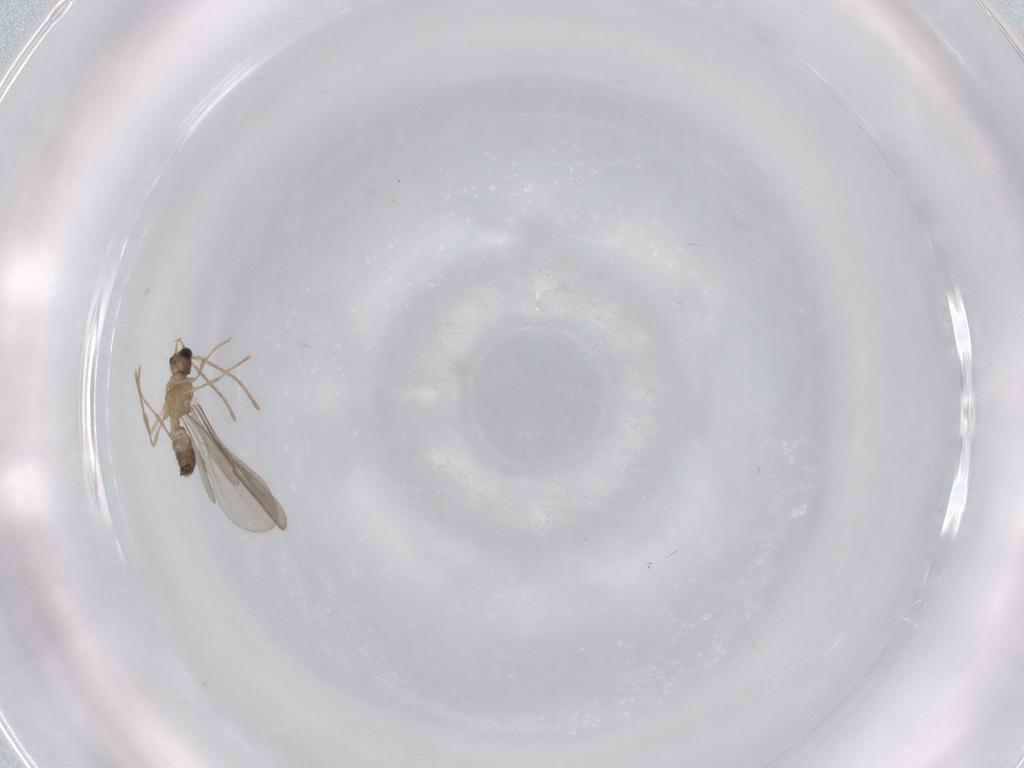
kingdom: Animalia
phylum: Arthropoda
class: Insecta
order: Hymenoptera
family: Formicidae
